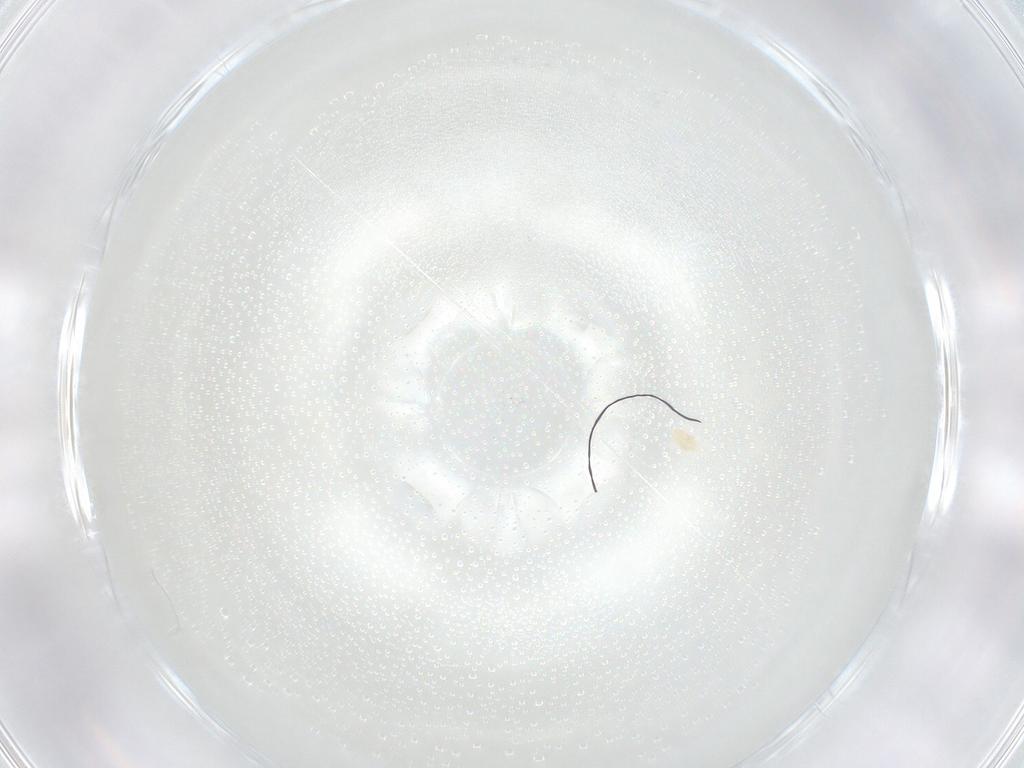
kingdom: Animalia
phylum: Arthropoda
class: Arachnida
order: Trombidiformes
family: Eupodidae
